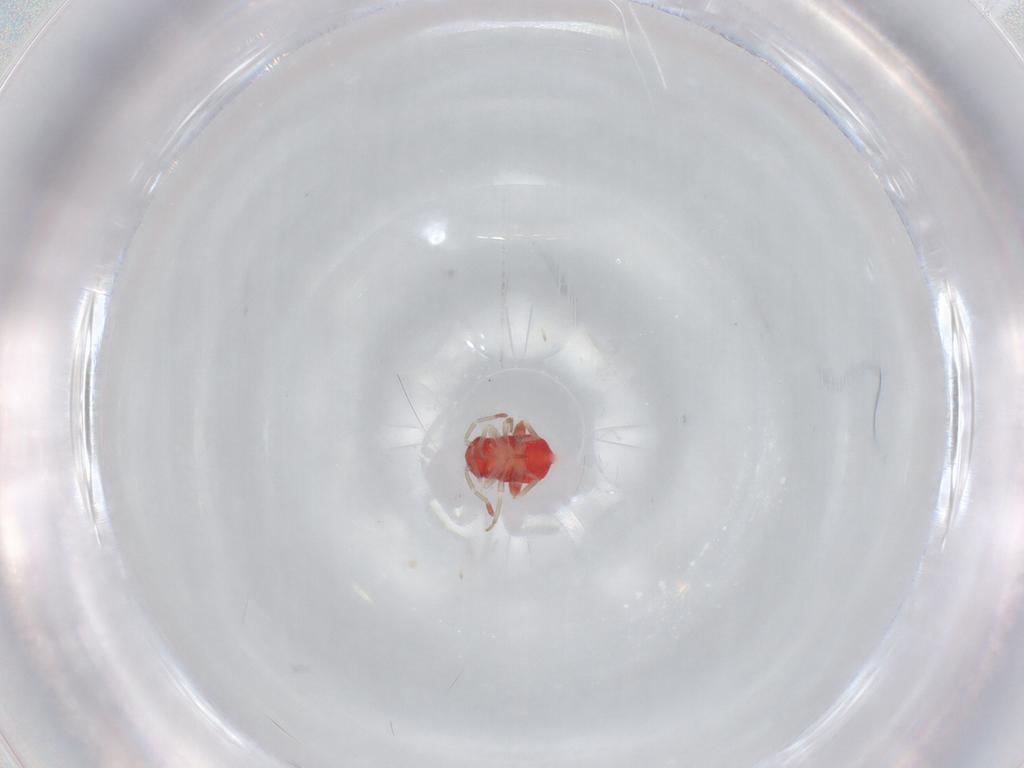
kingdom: Animalia
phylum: Arthropoda
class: Insecta
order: Hemiptera
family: Miridae
